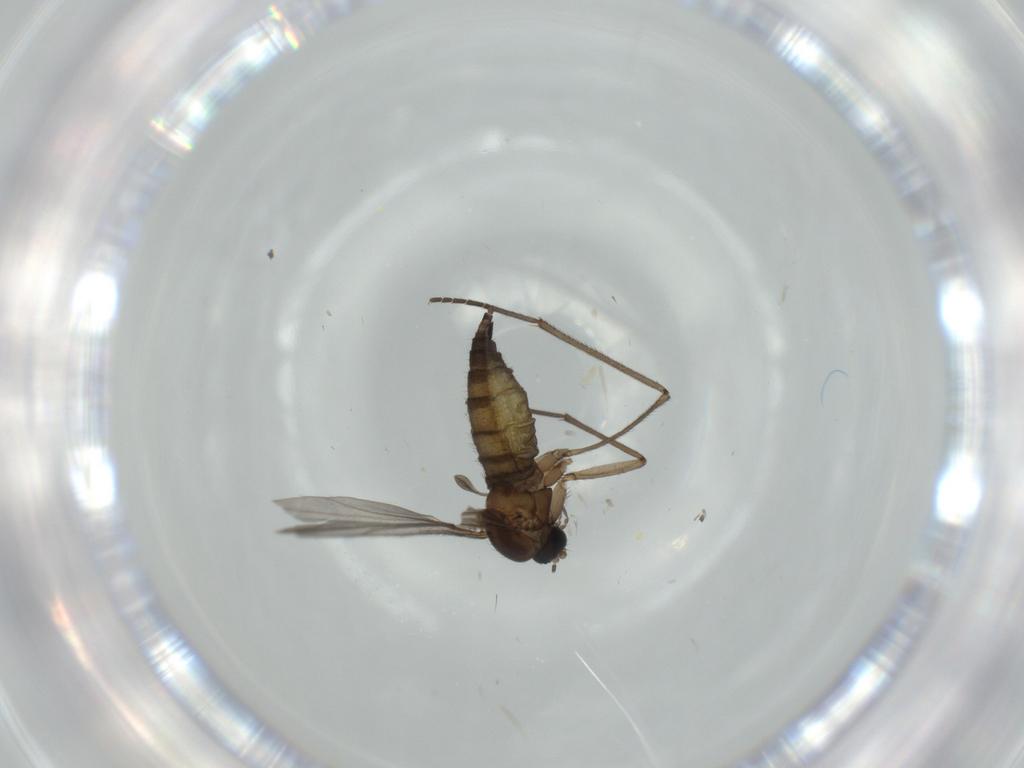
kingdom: Animalia
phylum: Arthropoda
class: Insecta
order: Diptera
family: Sciaridae
